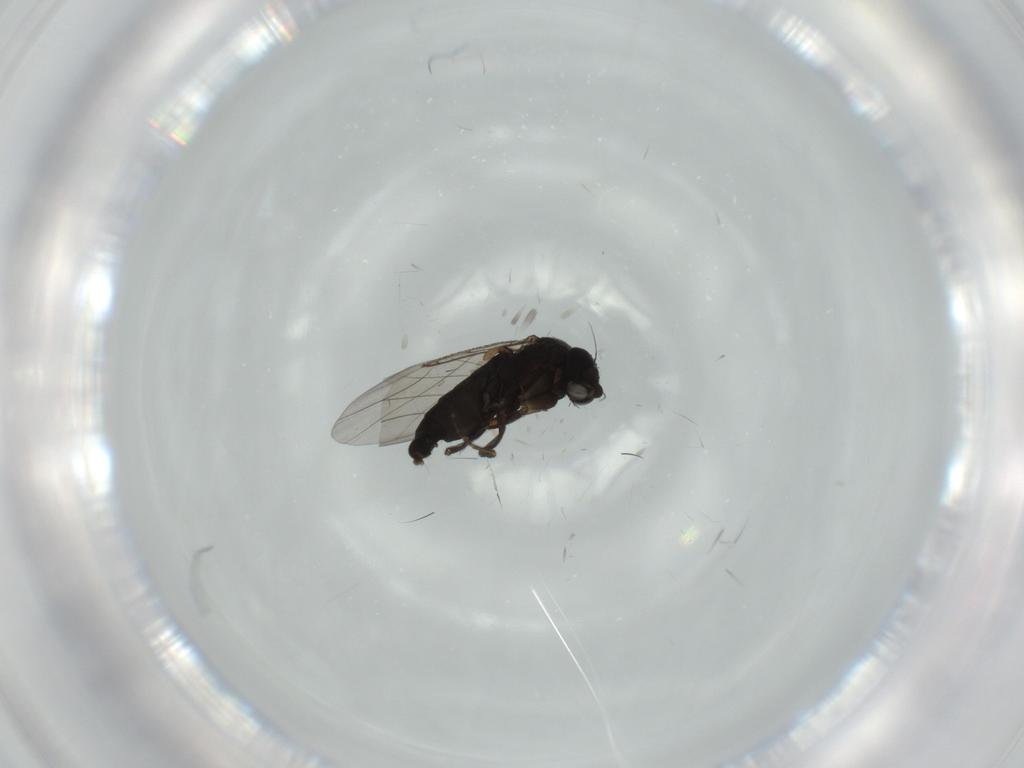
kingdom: Animalia
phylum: Arthropoda
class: Insecta
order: Diptera
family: Phoridae
